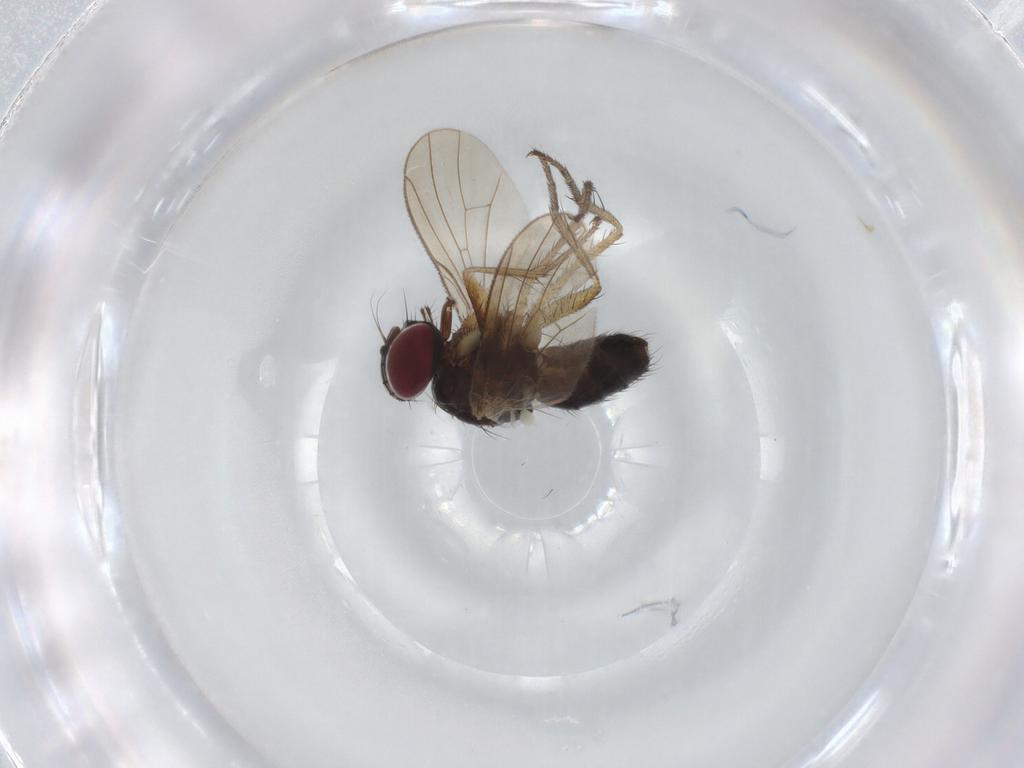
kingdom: Animalia
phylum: Arthropoda
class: Insecta
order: Diptera
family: Muscidae
